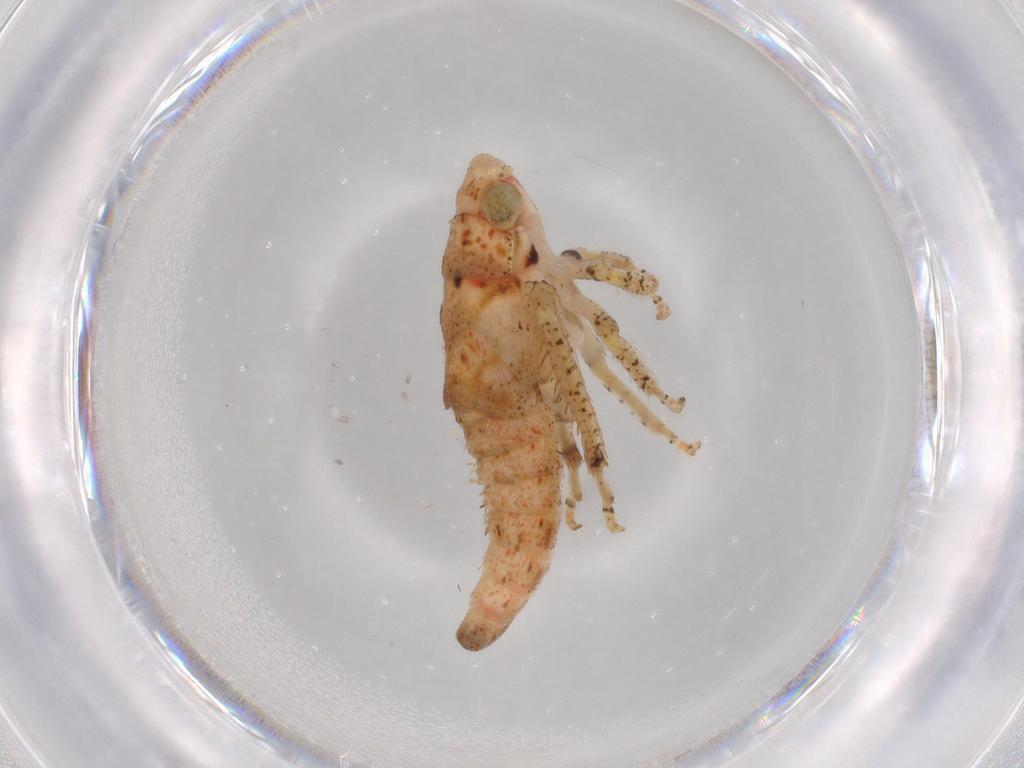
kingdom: Animalia
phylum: Arthropoda
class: Insecta
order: Hemiptera
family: Cicadellidae
